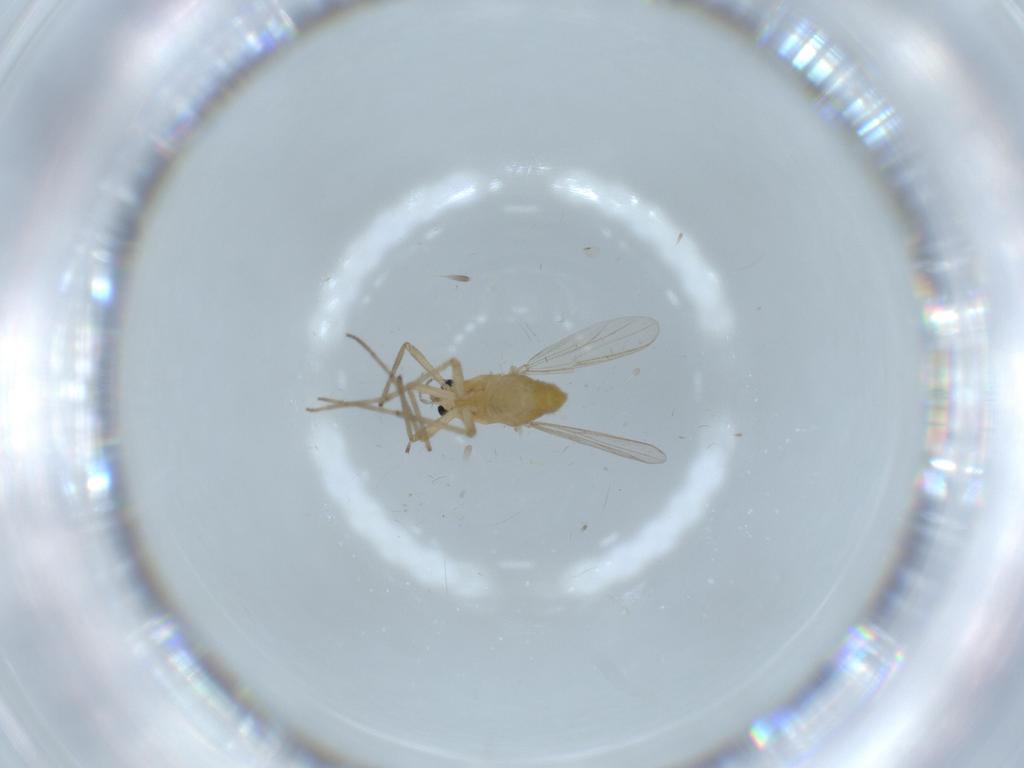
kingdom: Animalia
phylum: Arthropoda
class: Insecta
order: Diptera
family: Chironomidae
